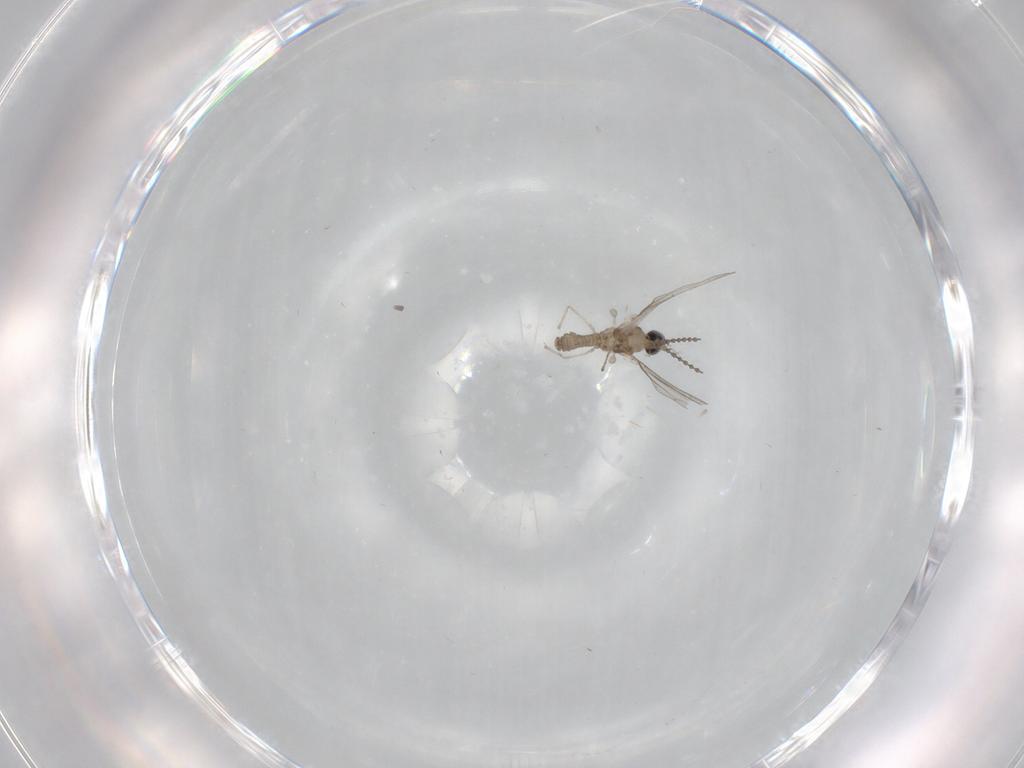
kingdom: Animalia
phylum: Arthropoda
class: Insecta
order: Diptera
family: Cecidomyiidae
